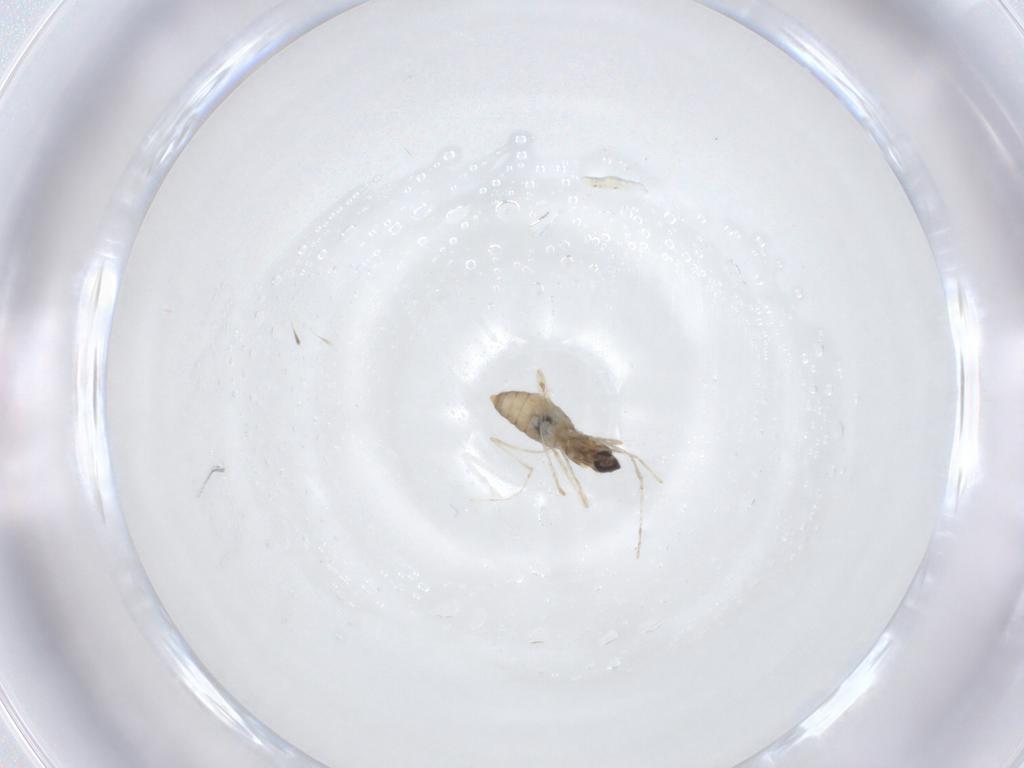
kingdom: Animalia
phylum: Arthropoda
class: Insecta
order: Diptera
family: Cecidomyiidae
